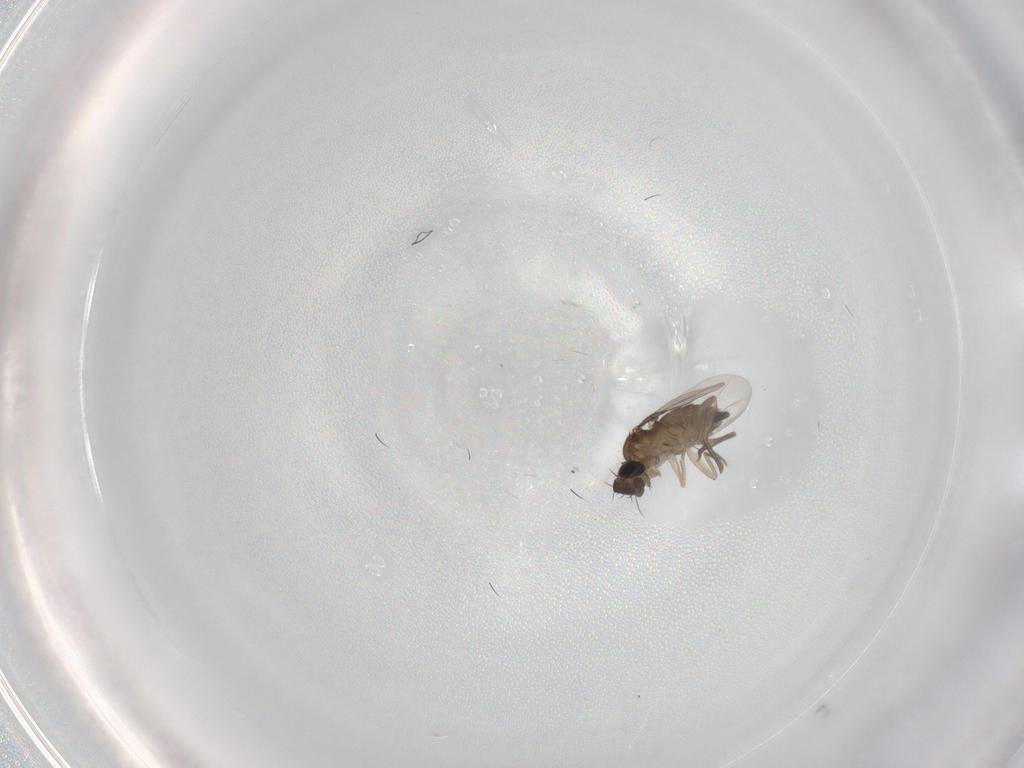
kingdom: Animalia
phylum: Arthropoda
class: Insecta
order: Diptera
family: Phoridae
